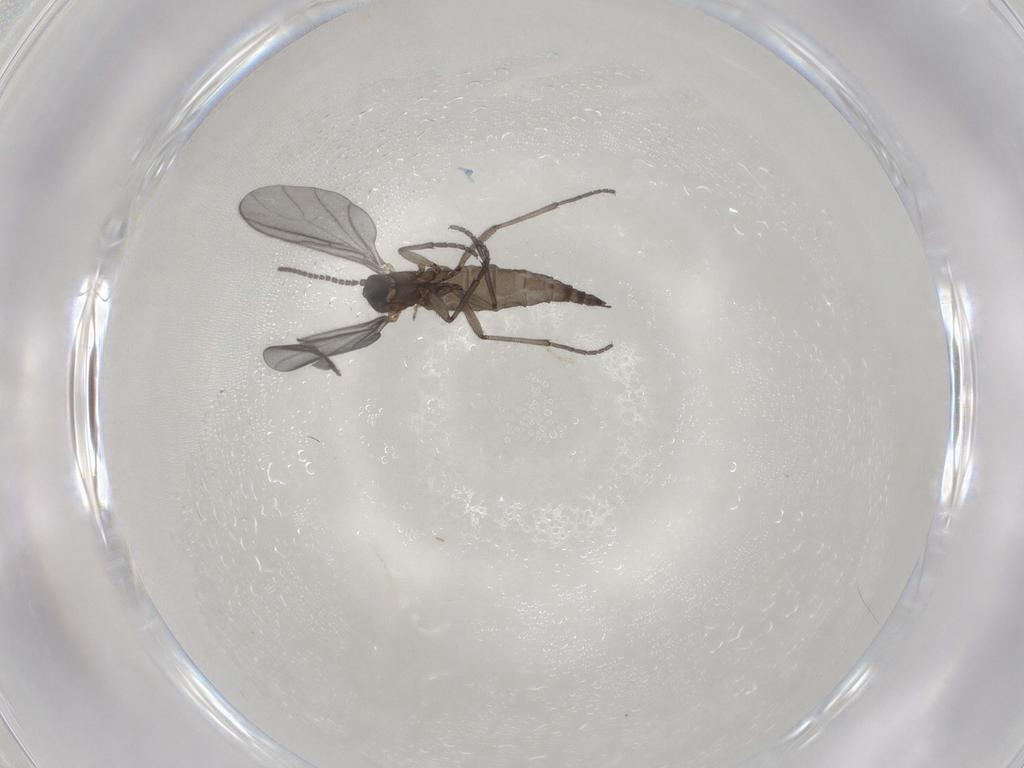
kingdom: Animalia
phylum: Arthropoda
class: Insecta
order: Diptera
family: Sciaridae
